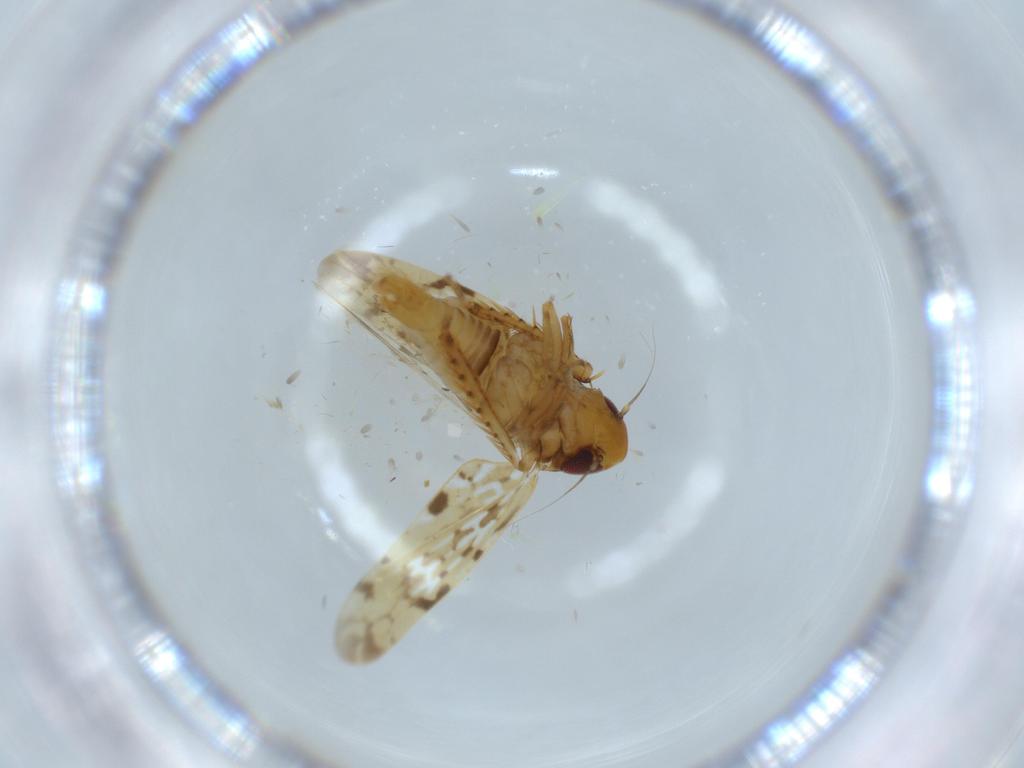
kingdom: Animalia
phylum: Arthropoda
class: Insecta
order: Hemiptera
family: Cicadellidae
